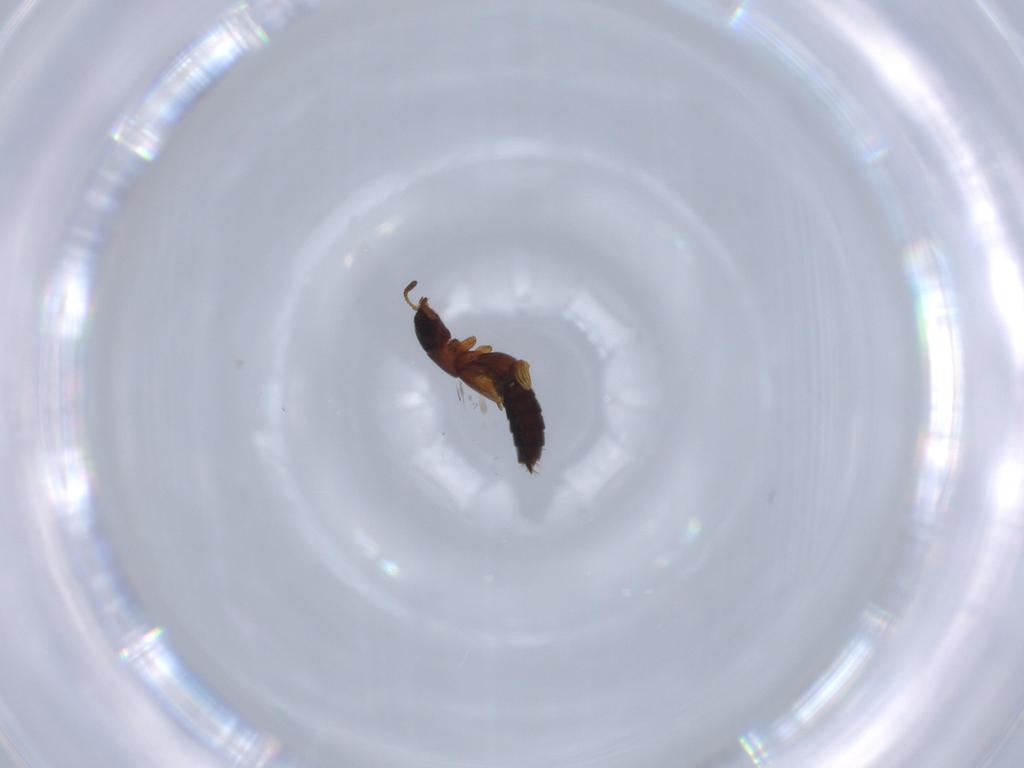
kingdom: Animalia
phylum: Arthropoda
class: Insecta
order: Coleoptera
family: Staphylinidae
